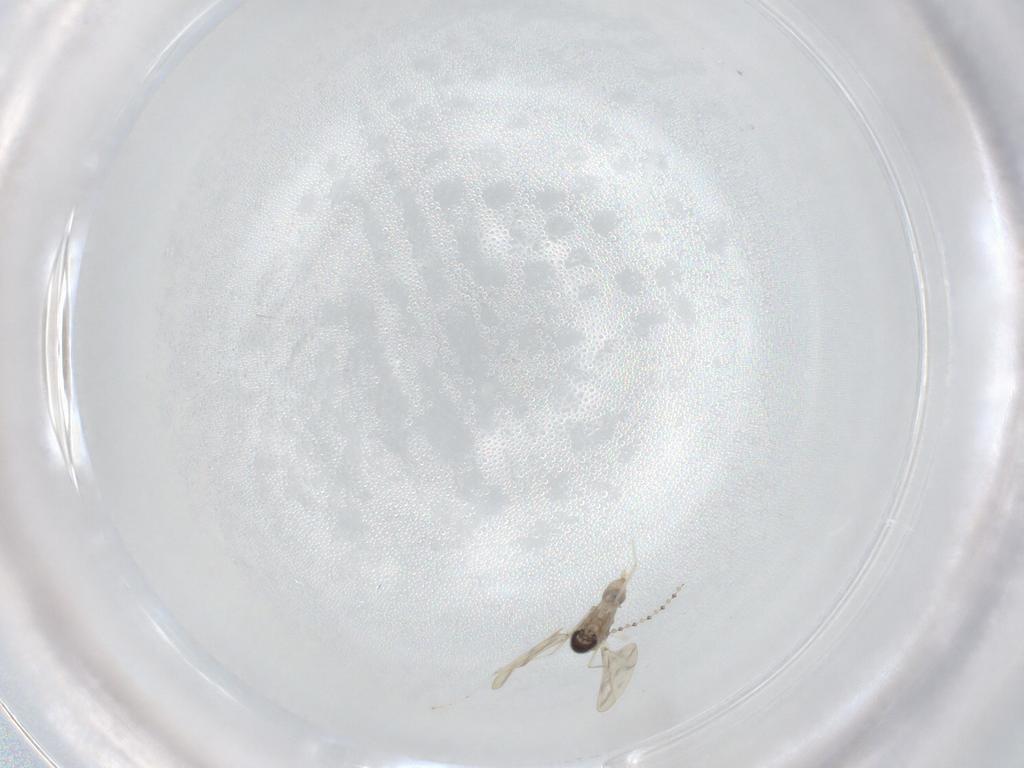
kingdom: Animalia
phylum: Arthropoda
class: Insecta
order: Diptera
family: Cecidomyiidae
